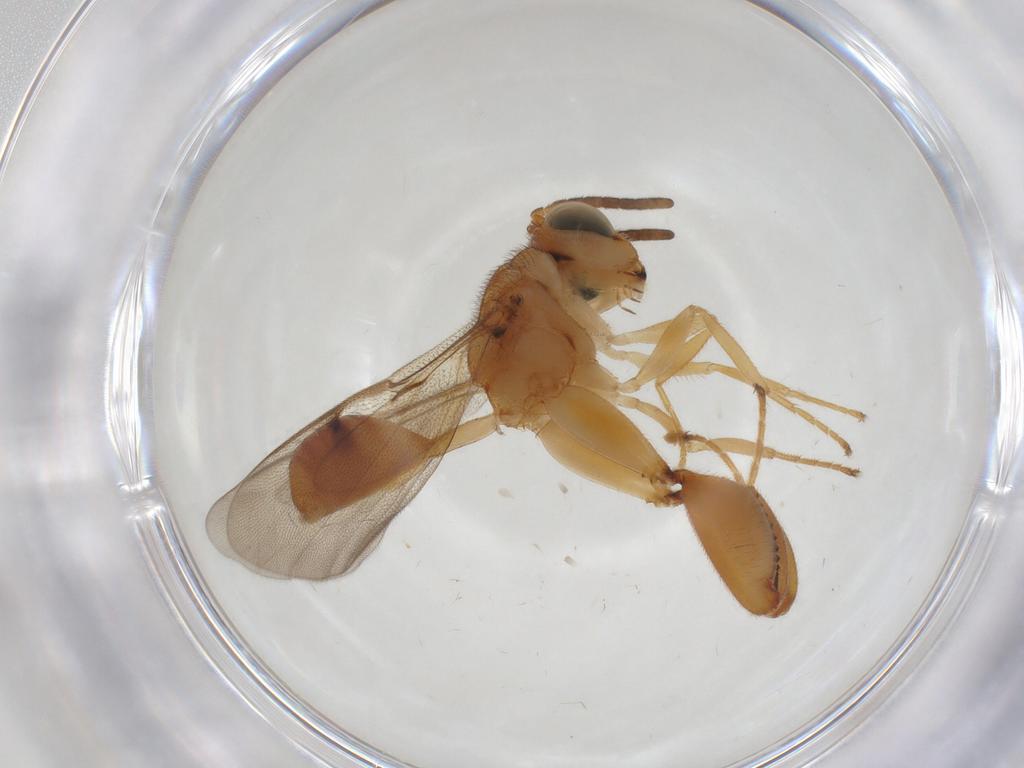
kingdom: Animalia
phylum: Arthropoda
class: Insecta
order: Hymenoptera
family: Chalcididae
